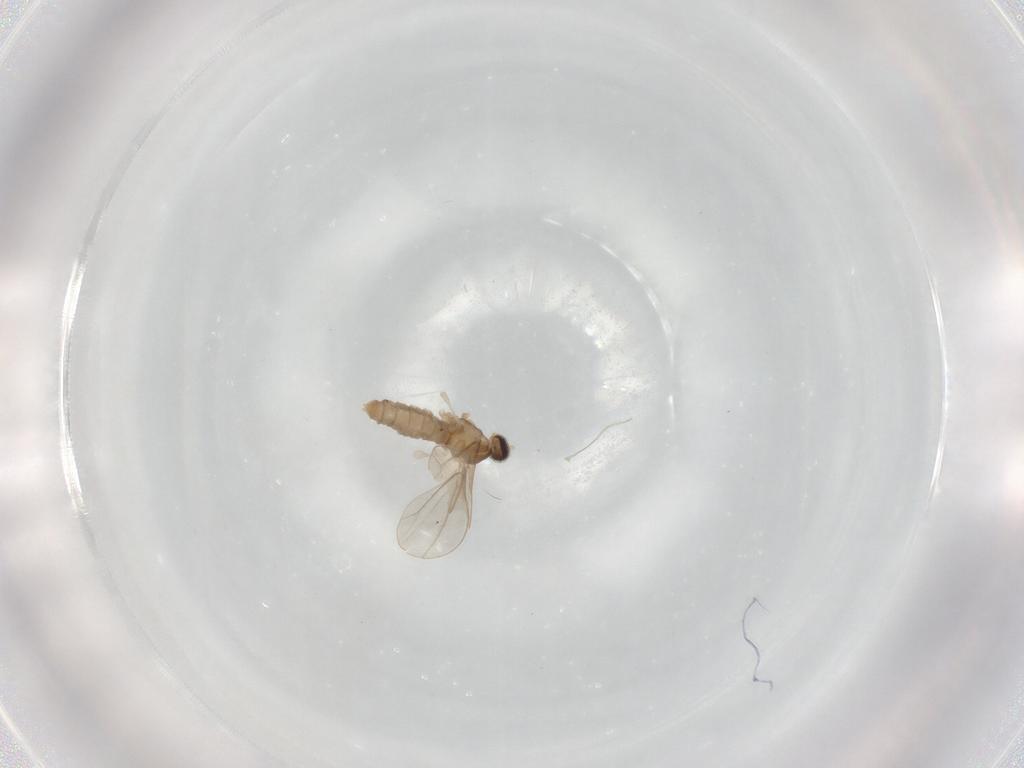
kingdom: Animalia
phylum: Arthropoda
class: Insecta
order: Diptera
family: Cecidomyiidae
